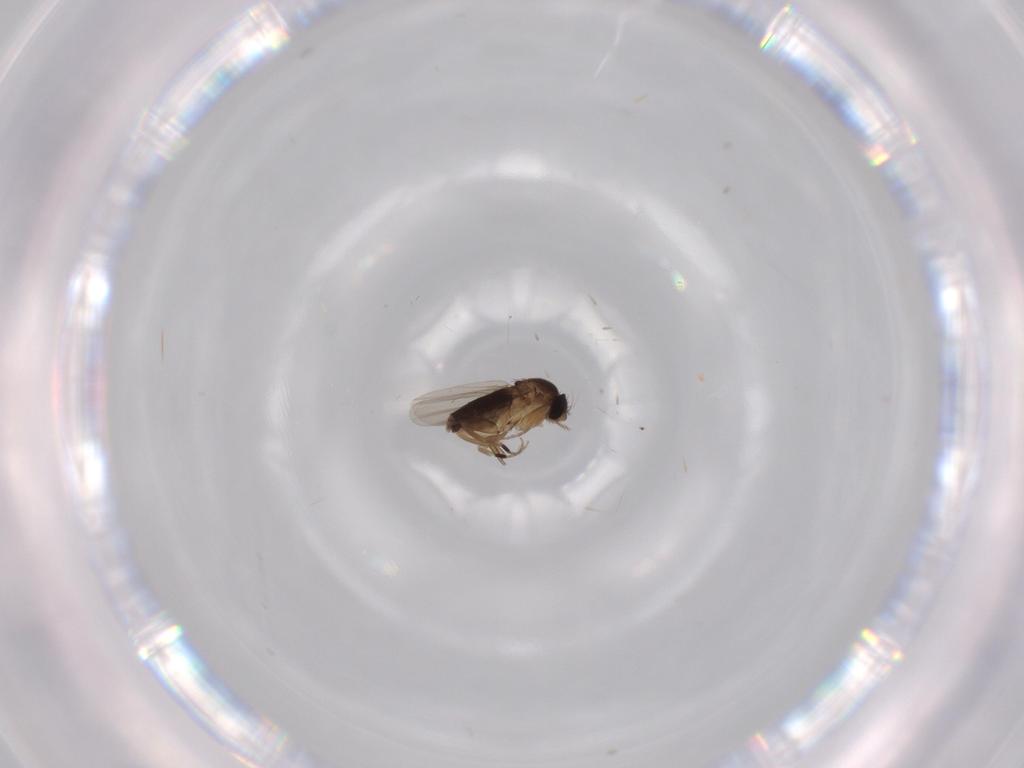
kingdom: Animalia
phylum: Arthropoda
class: Insecta
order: Diptera
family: Phoridae
